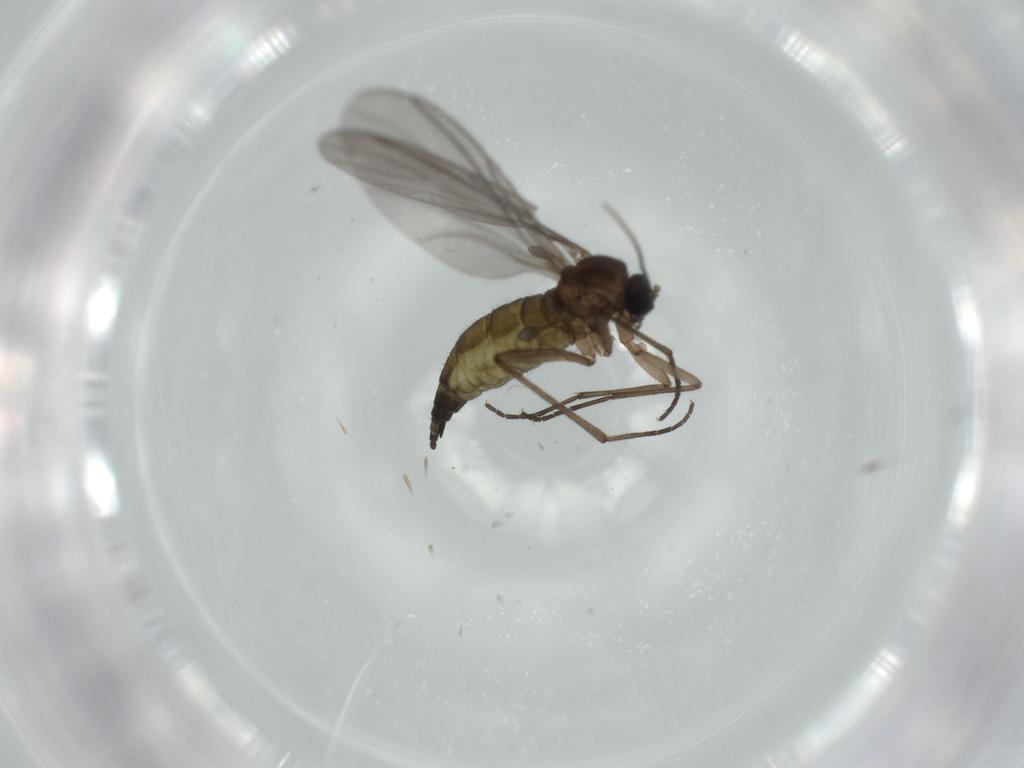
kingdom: Animalia
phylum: Arthropoda
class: Insecta
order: Diptera
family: Sciaridae
